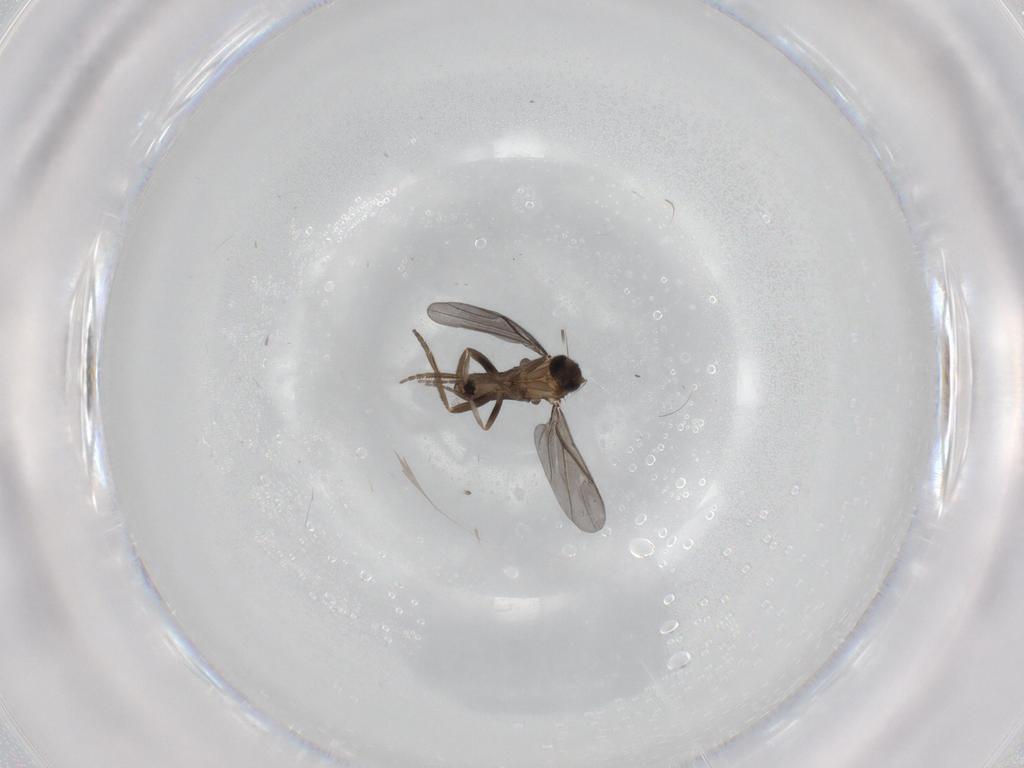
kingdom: Animalia
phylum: Arthropoda
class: Insecta
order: Diptera
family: Phoridae
